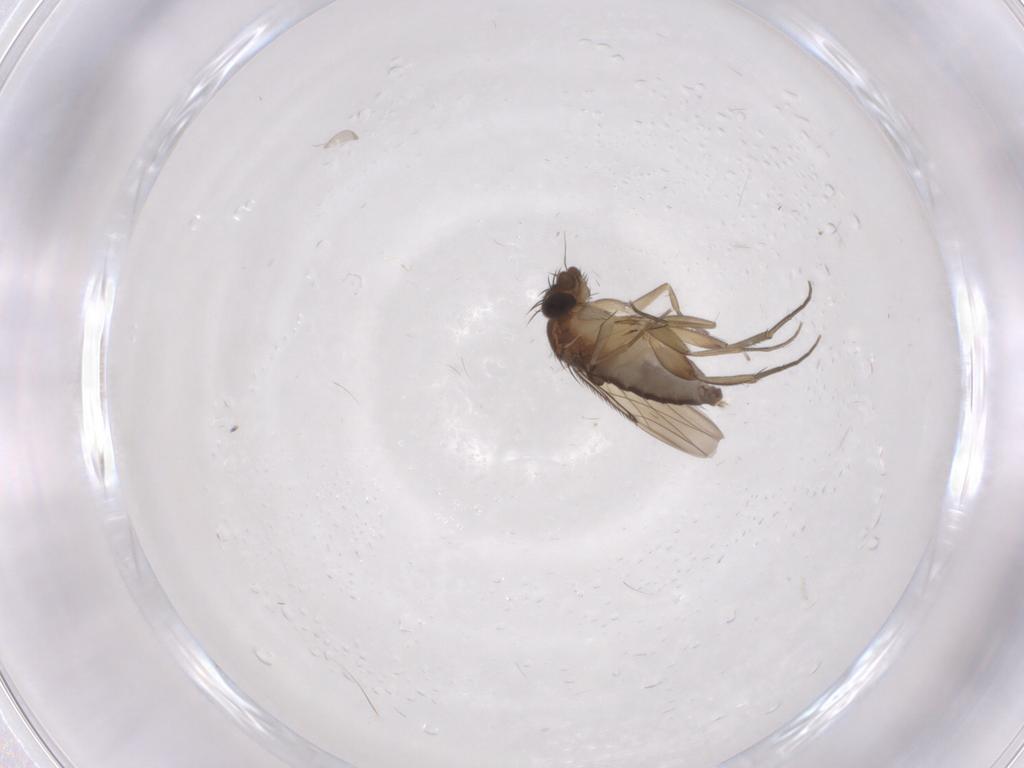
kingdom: Animalia
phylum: Arthropoda
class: Insecta
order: Diptera
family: Phoridae
